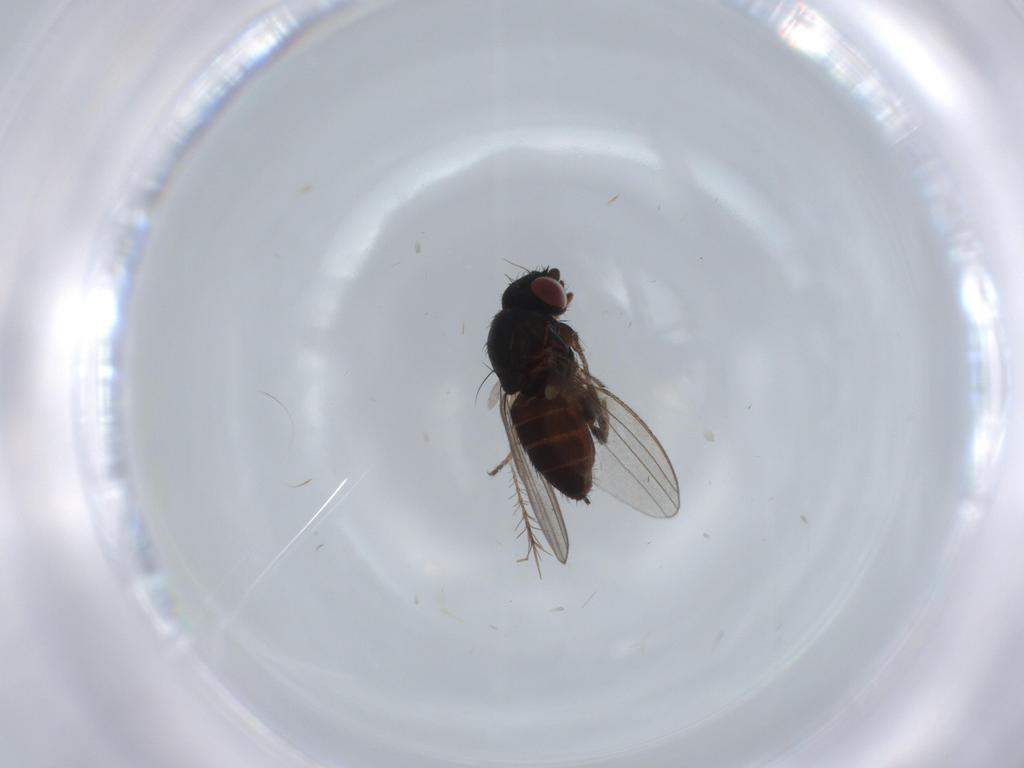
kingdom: Animalia
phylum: Arthropoda
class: Insecta
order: Diptera
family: Milichiidae
